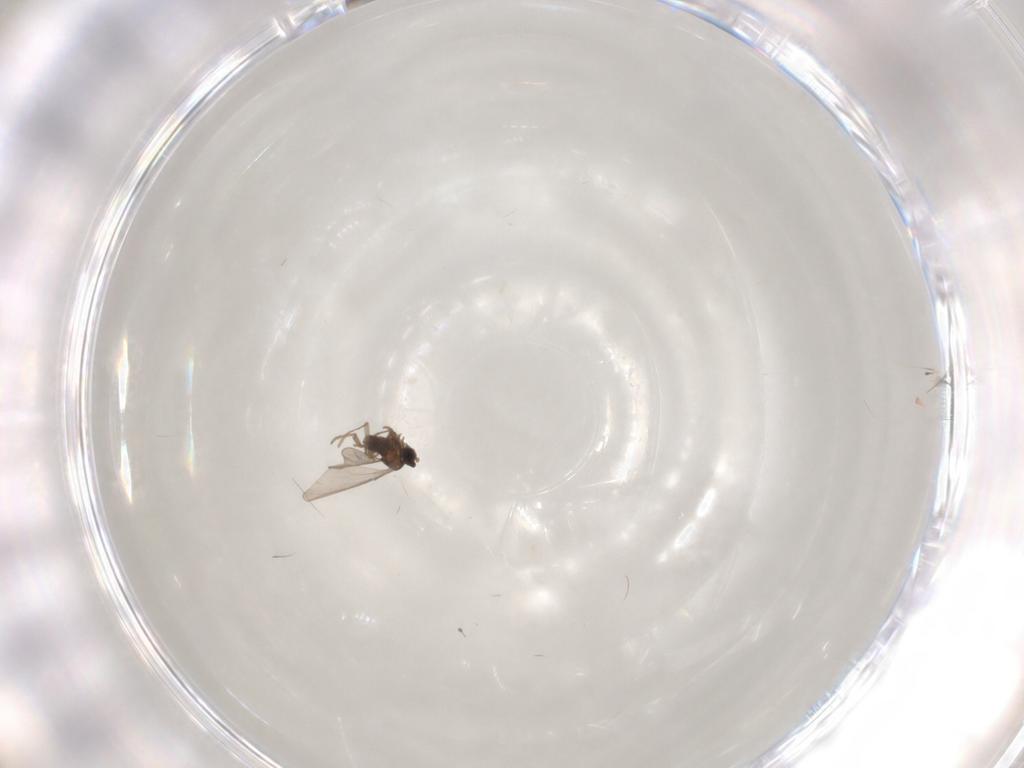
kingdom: Animalia
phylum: Arthropoda
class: Insecta
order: Diptera
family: Cecidomyiidae
